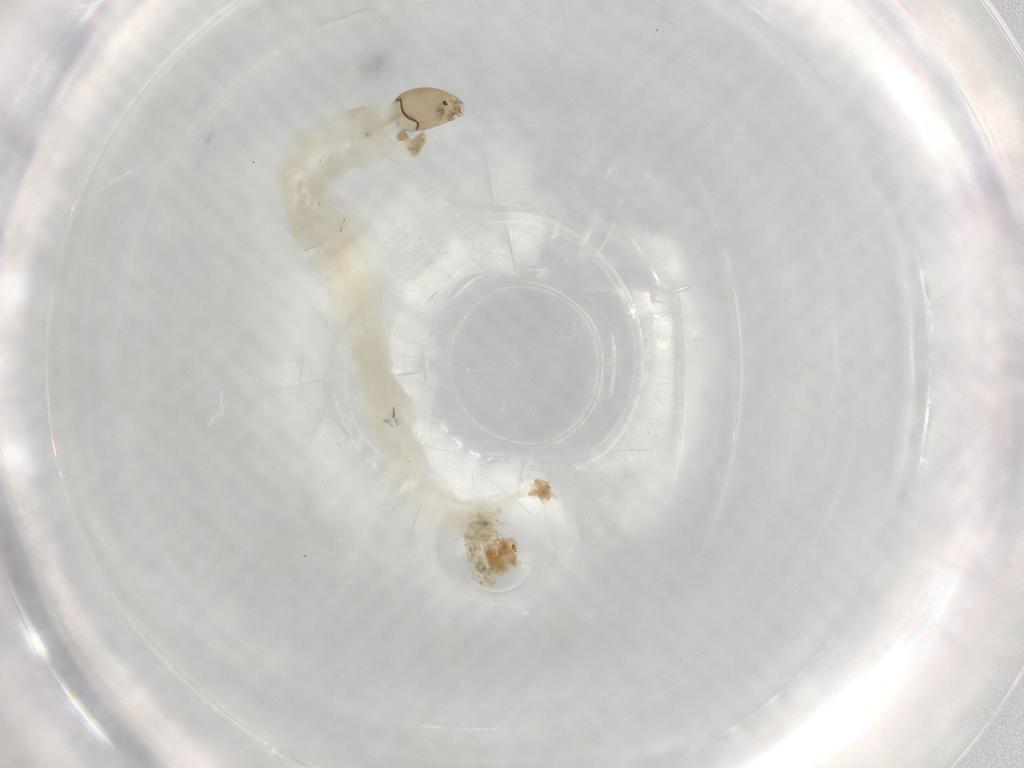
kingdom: Animalia
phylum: Arthropoda
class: Insecta
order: Diptera
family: Chironomidae
